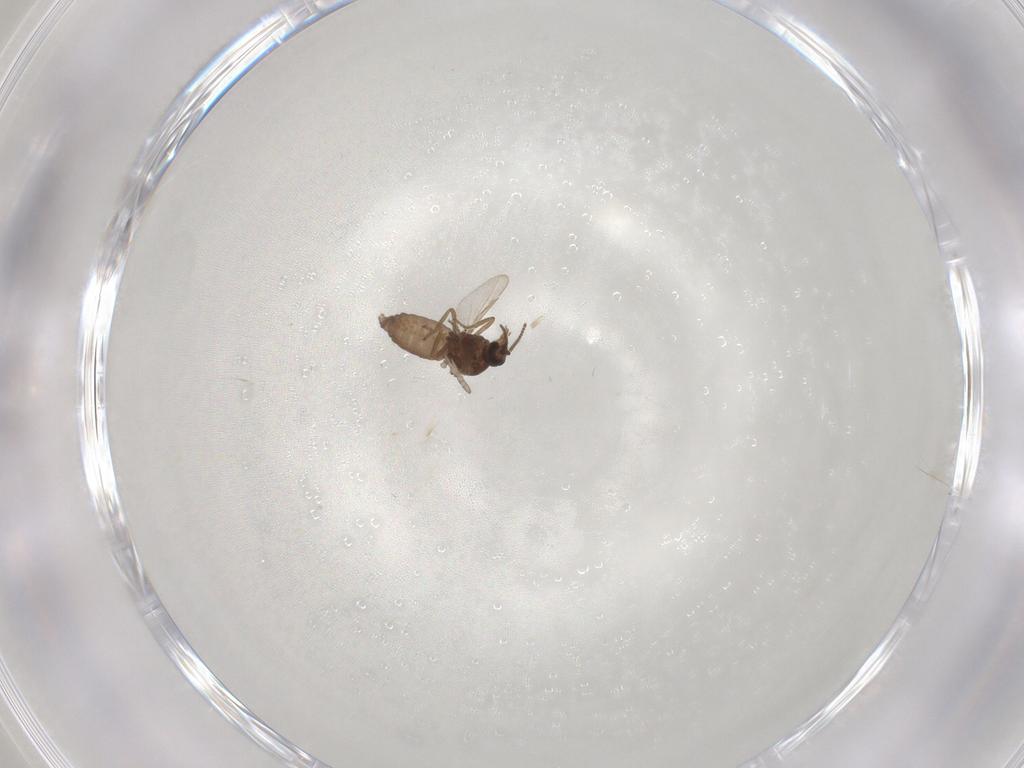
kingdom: Animalia
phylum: Arthropoda
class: Insecta
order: Diptera
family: Ceratopogonidae
